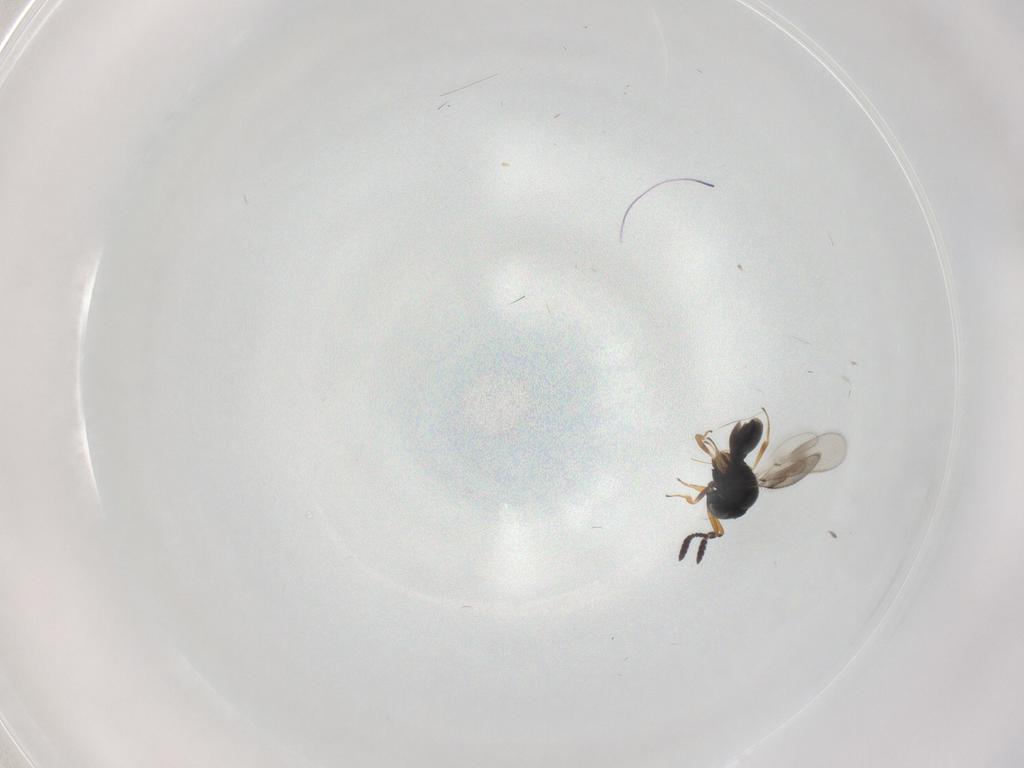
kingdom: Animalia
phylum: Arthropoda
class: Insecta
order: Hymenoptera
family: Scelionidae
